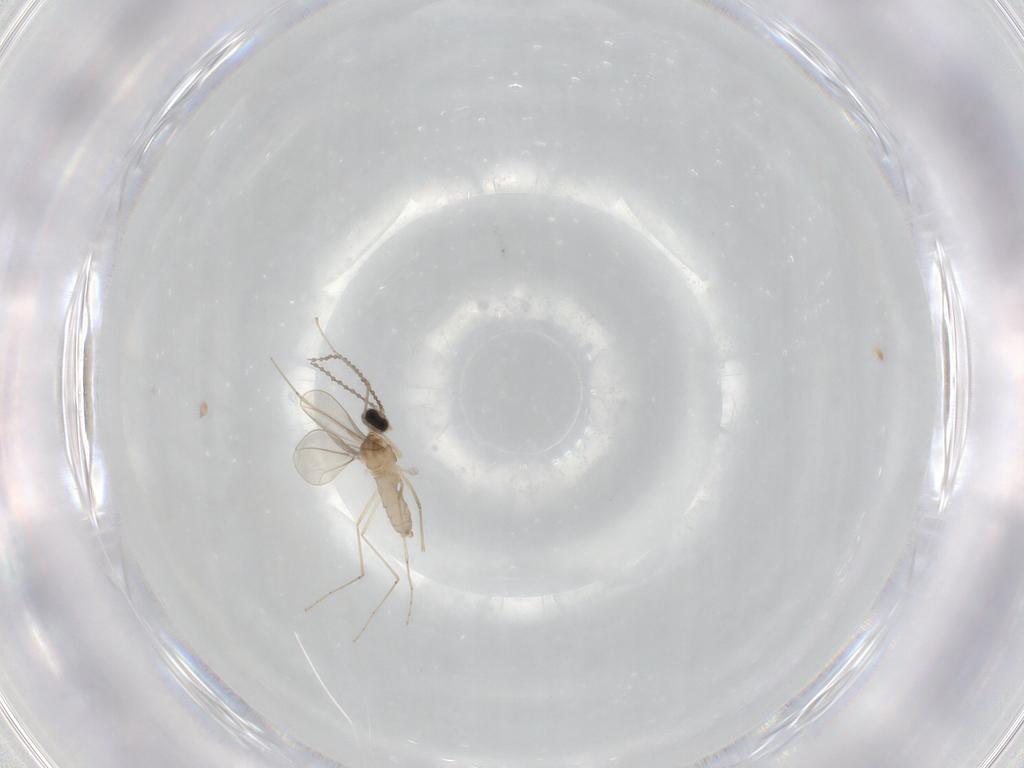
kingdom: Animalia
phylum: Arthropoda
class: Insecta
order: Diptera
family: Cecidomyiidae
